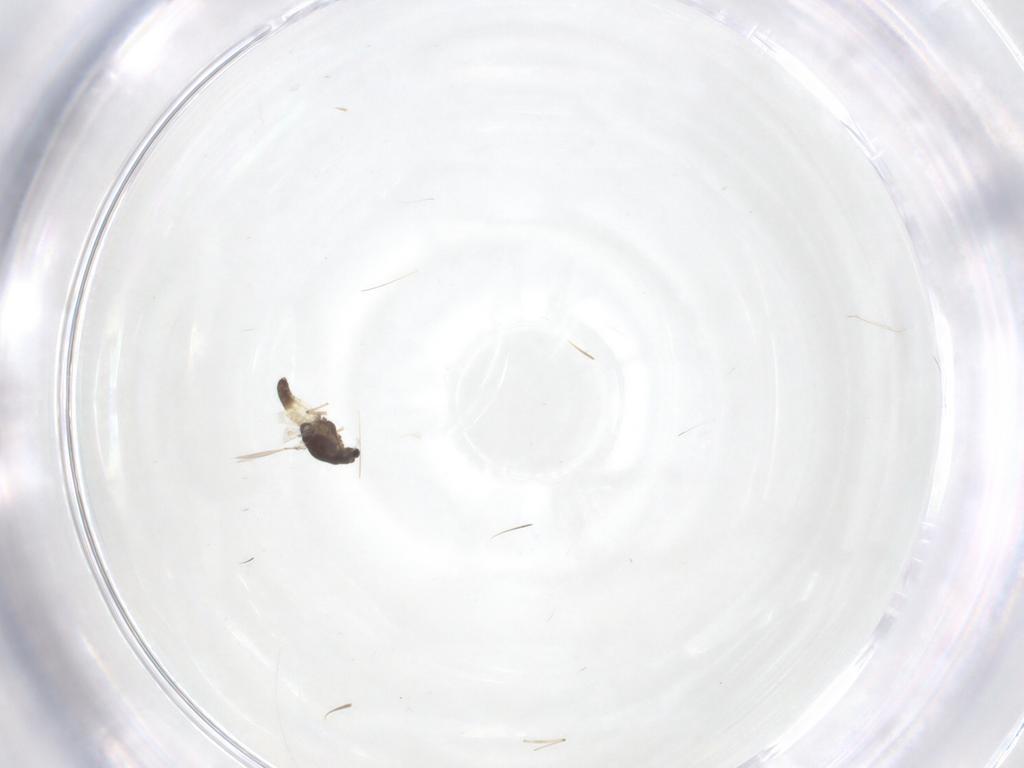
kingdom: Animalia
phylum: Arthropoda
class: Insecta
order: Diptera
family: Chironomidae
